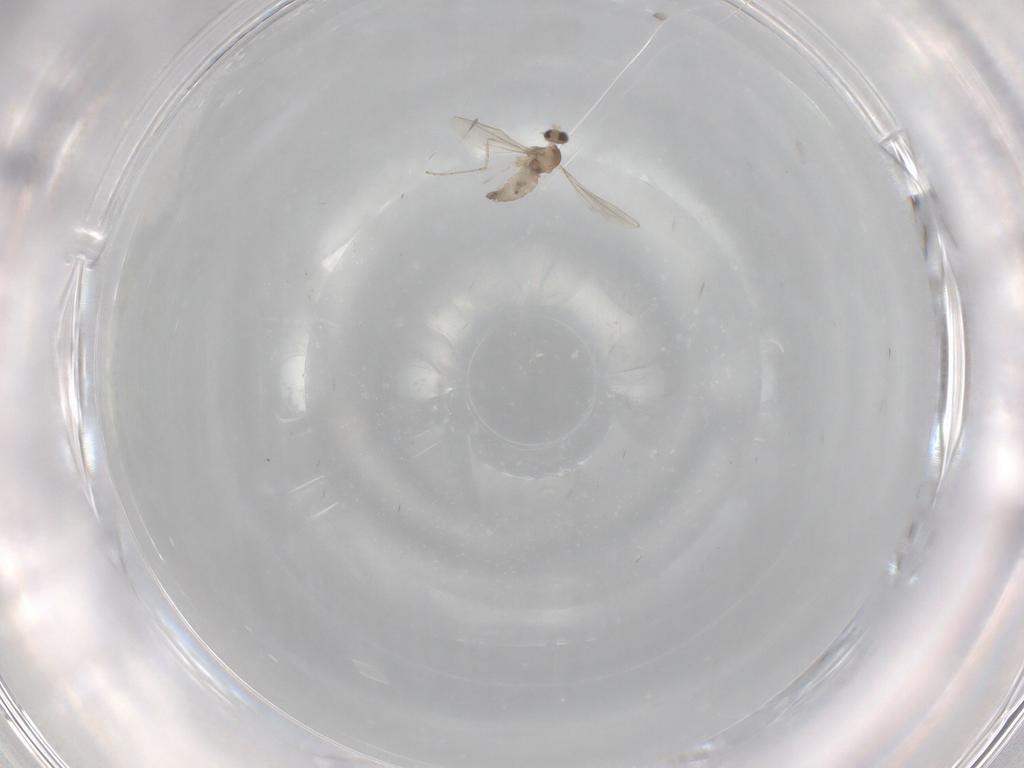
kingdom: Animalia
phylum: Arthropoda
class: Insecta
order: Diptera
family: Cecidomyiidae
